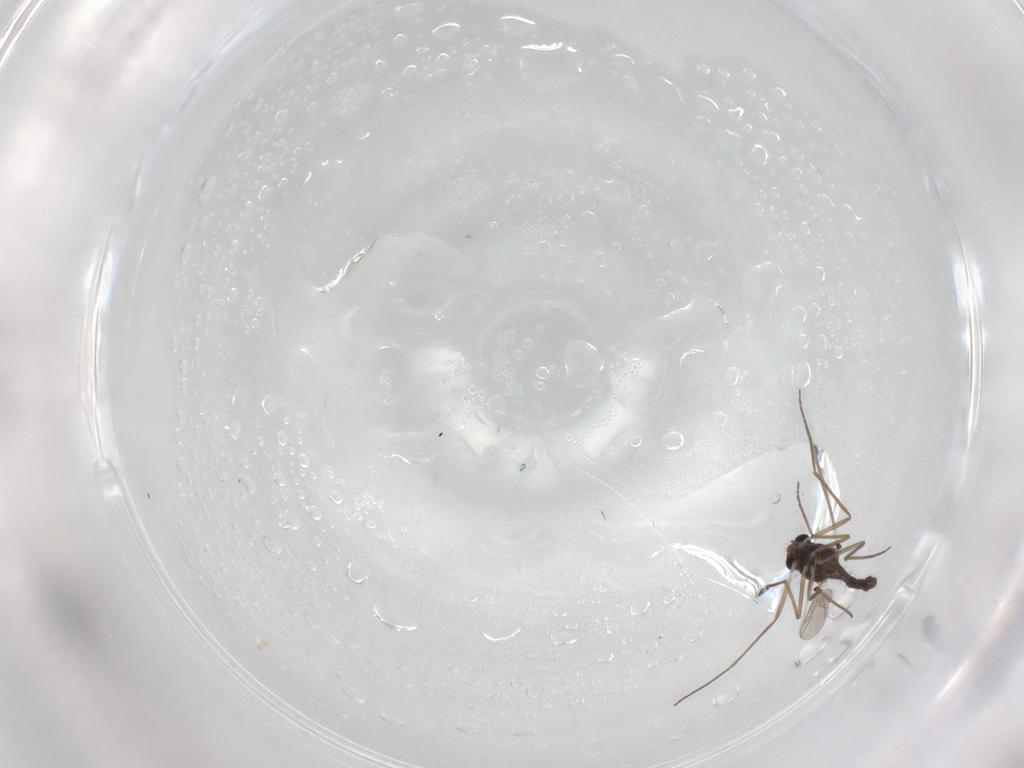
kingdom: Animalia
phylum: Arthropoda
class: Insecta
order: Diptera
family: Chironomidae
